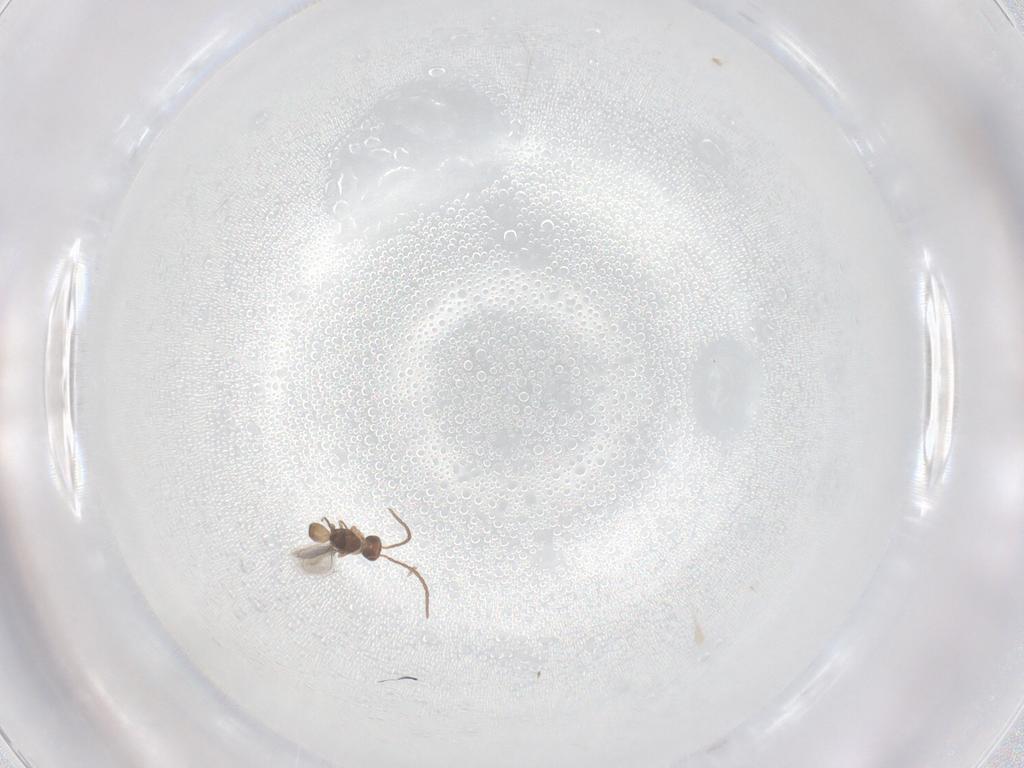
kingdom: Animalia
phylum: Arthropoda
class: Insecta
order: Hymenoptera
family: Mymaridae
